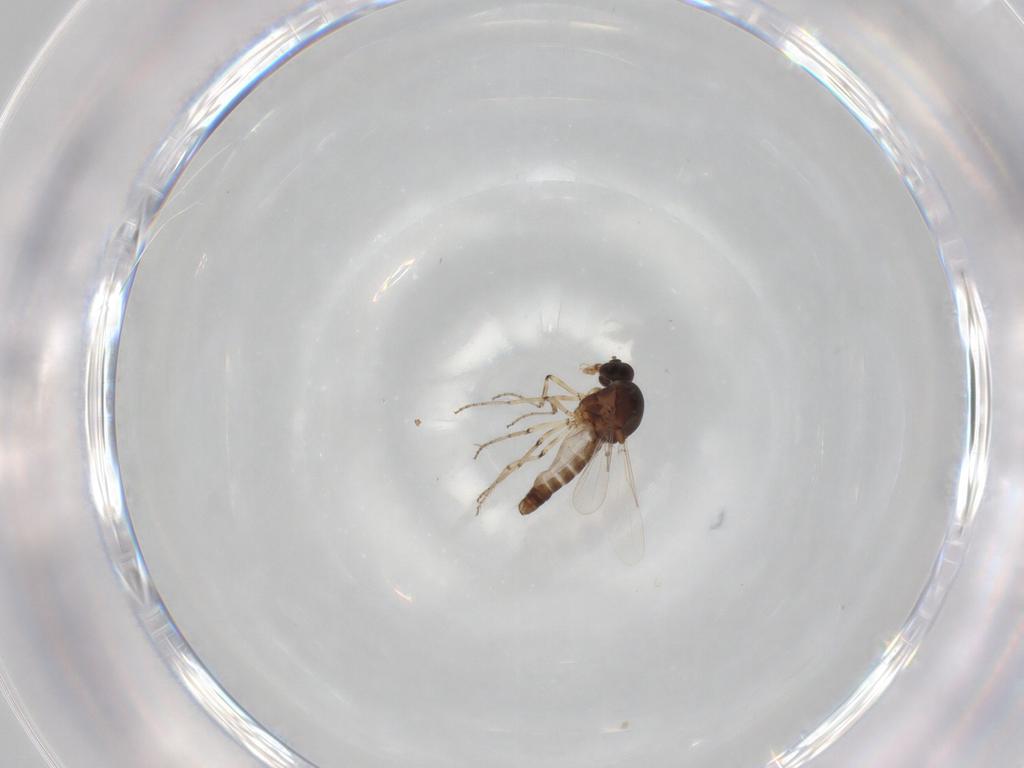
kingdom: Animalia
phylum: Arthropoda
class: Insecta
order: Diptera
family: Ceratopogonidae
